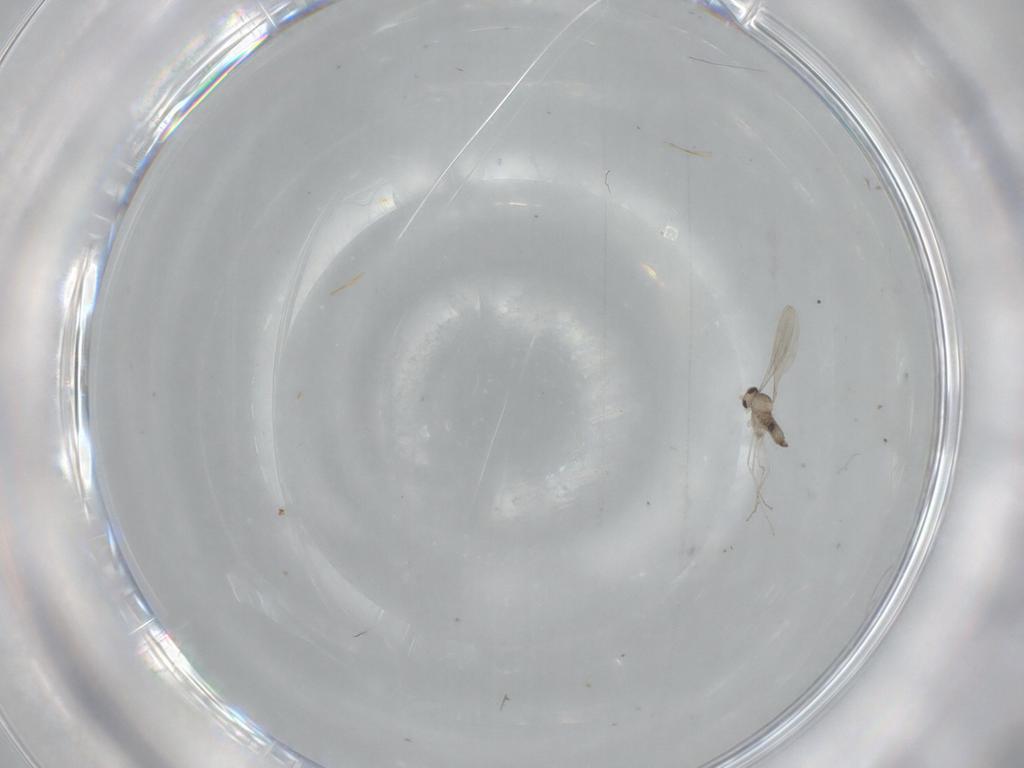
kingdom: Animalia
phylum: Arthropoda
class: Insecta
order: Diptera
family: Cecidomyiidae
